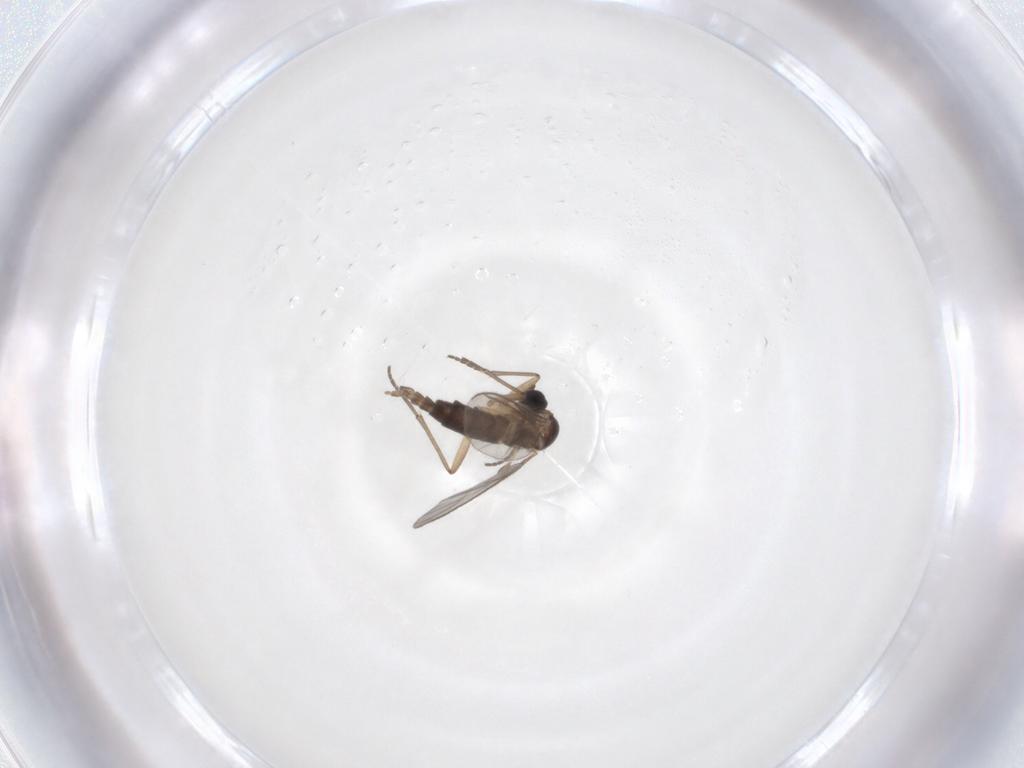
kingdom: Animalia
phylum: Arthropoda
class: Insecta
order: Diptera
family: Sciaridae
